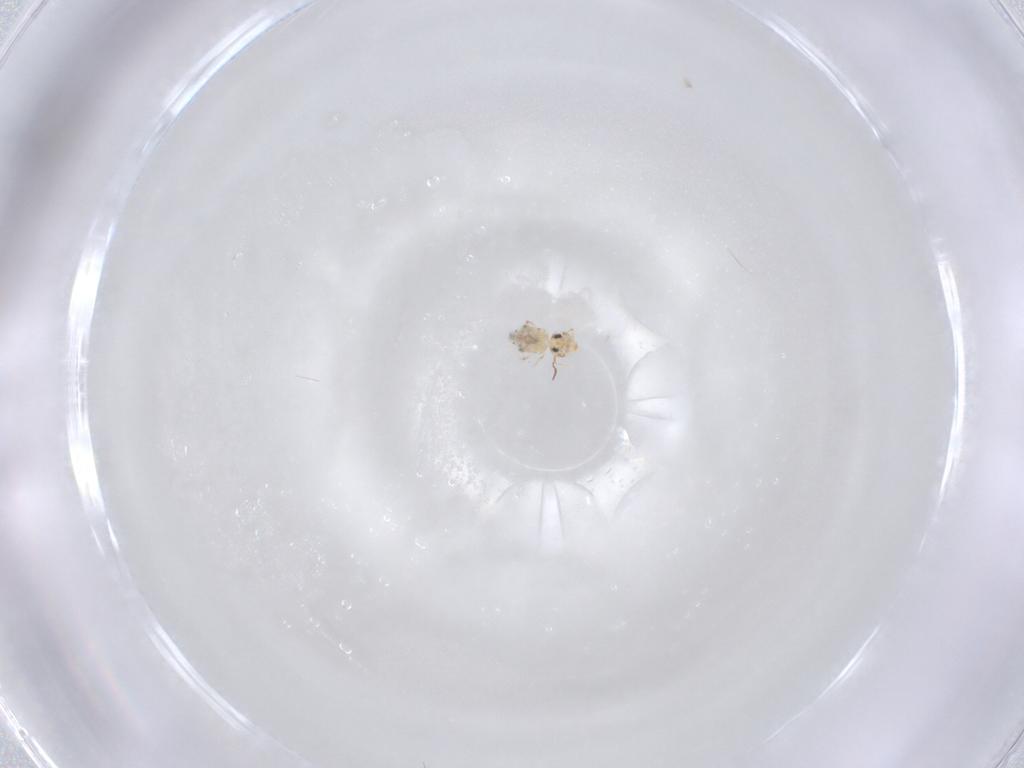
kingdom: Animalia
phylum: Arthropoda
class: Collembola
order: Symphypleona
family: Bourletiellidae
